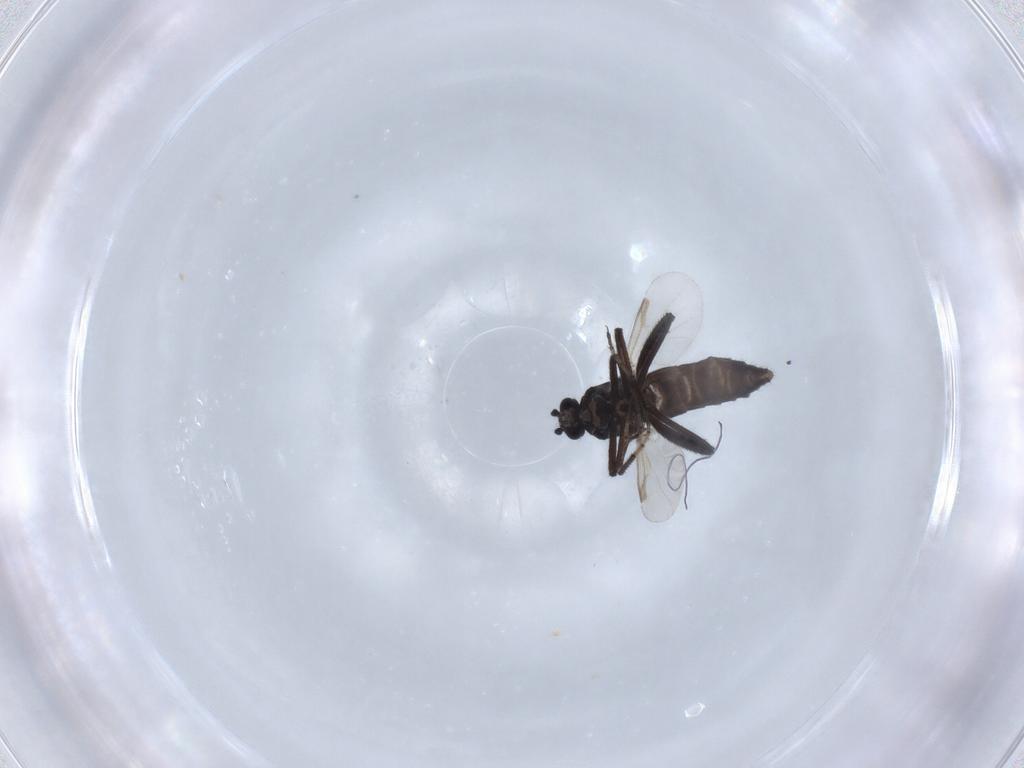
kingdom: Animalia
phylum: Arthropoda
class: Insecta
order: Diptera
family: Ceratopogonidae
